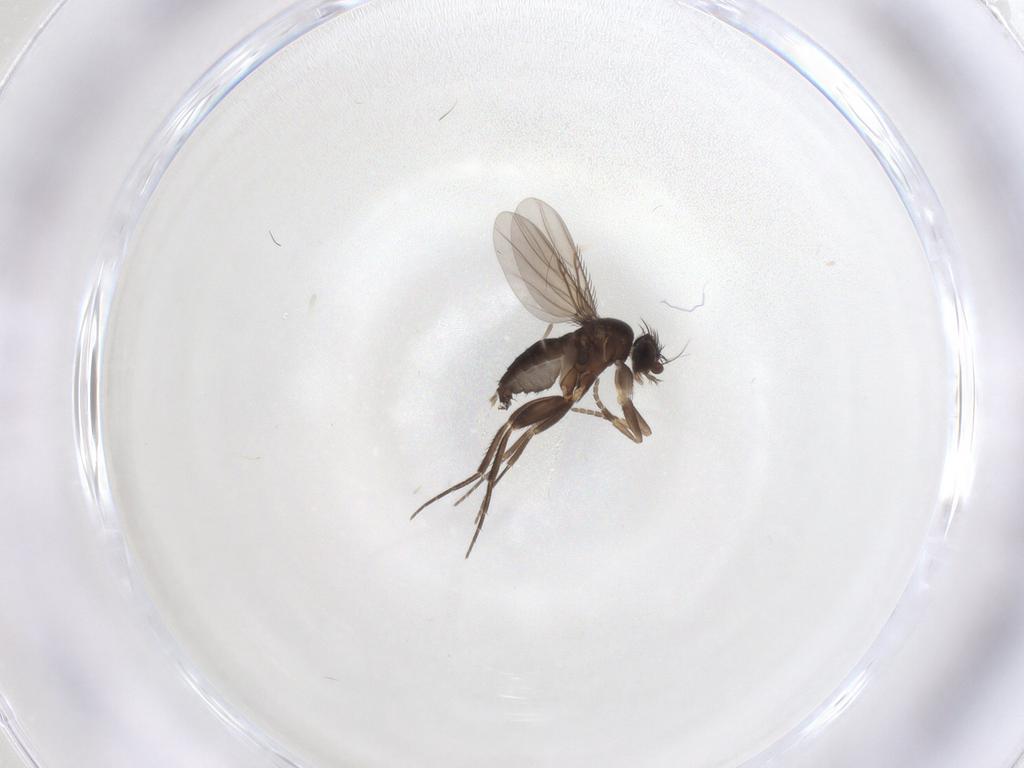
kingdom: Animalia
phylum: Arthropoda
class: Insecta
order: Diptera
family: Phoridae
